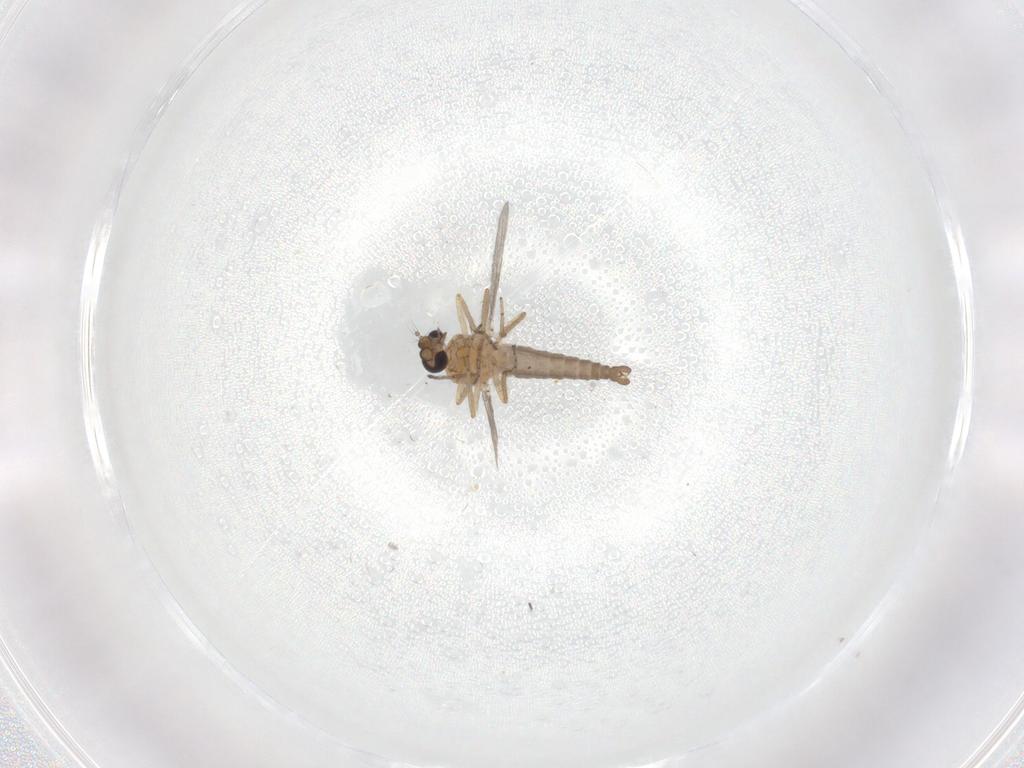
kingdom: Animalia
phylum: Arthropoda
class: Insecta
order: Diptera
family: Ceratopogonidae
